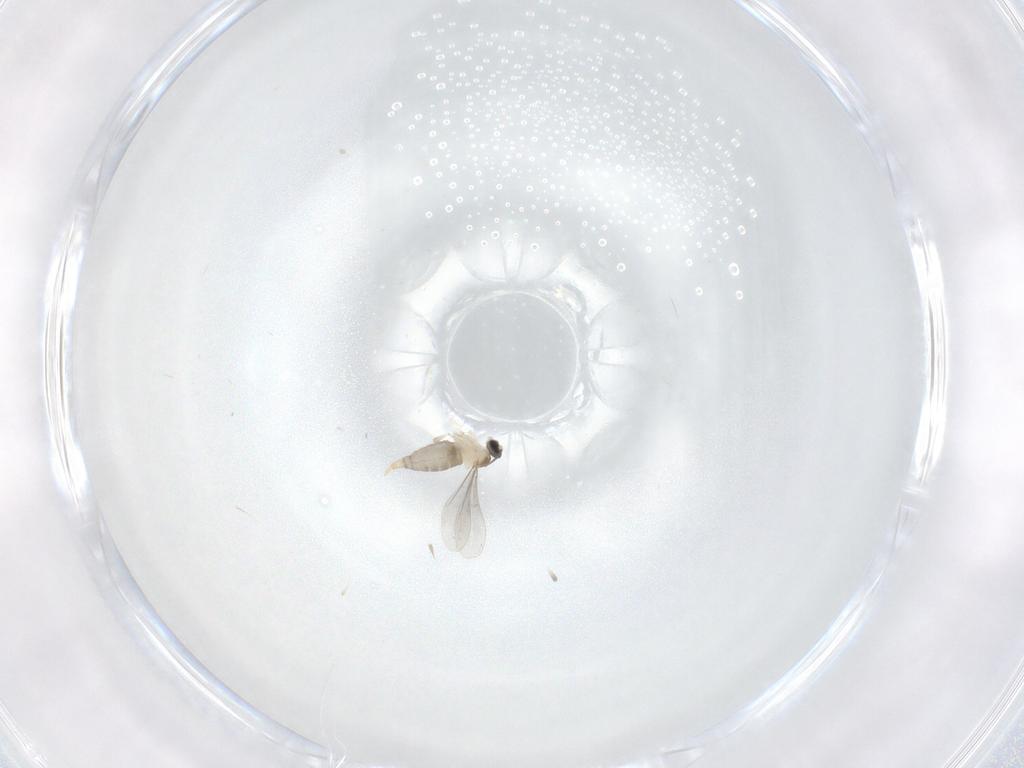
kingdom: Animalia
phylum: Arthropoda
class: Insecta
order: Diptera
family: Cecidomyiidae
